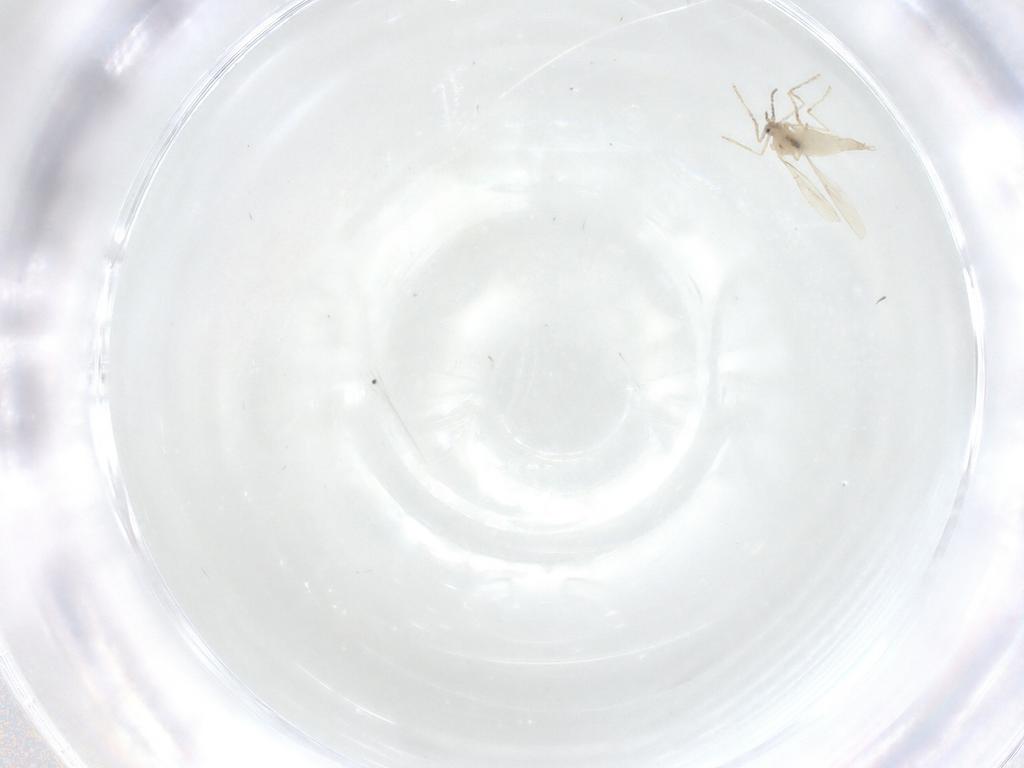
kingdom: Animalia
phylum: Arthropoda
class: Insecta
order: Diptera
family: Cecidomyiidae
